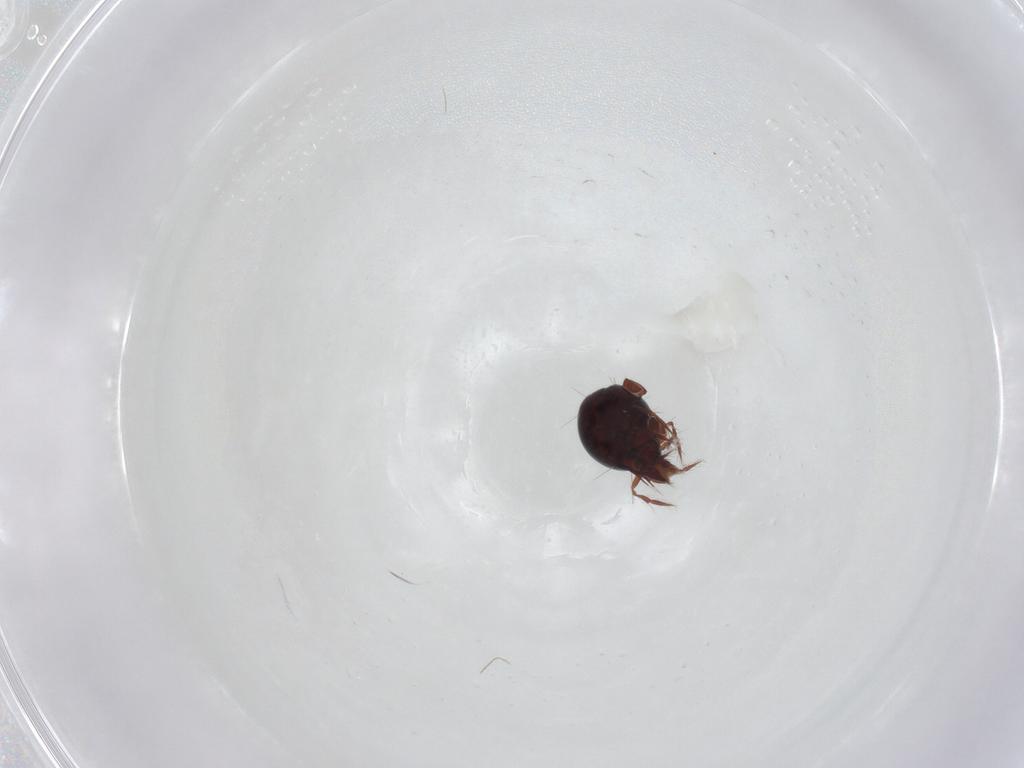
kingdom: Animalia
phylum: Arthropoda
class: Arachnida
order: Sarcoptiformes
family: Ceratoppiidae
